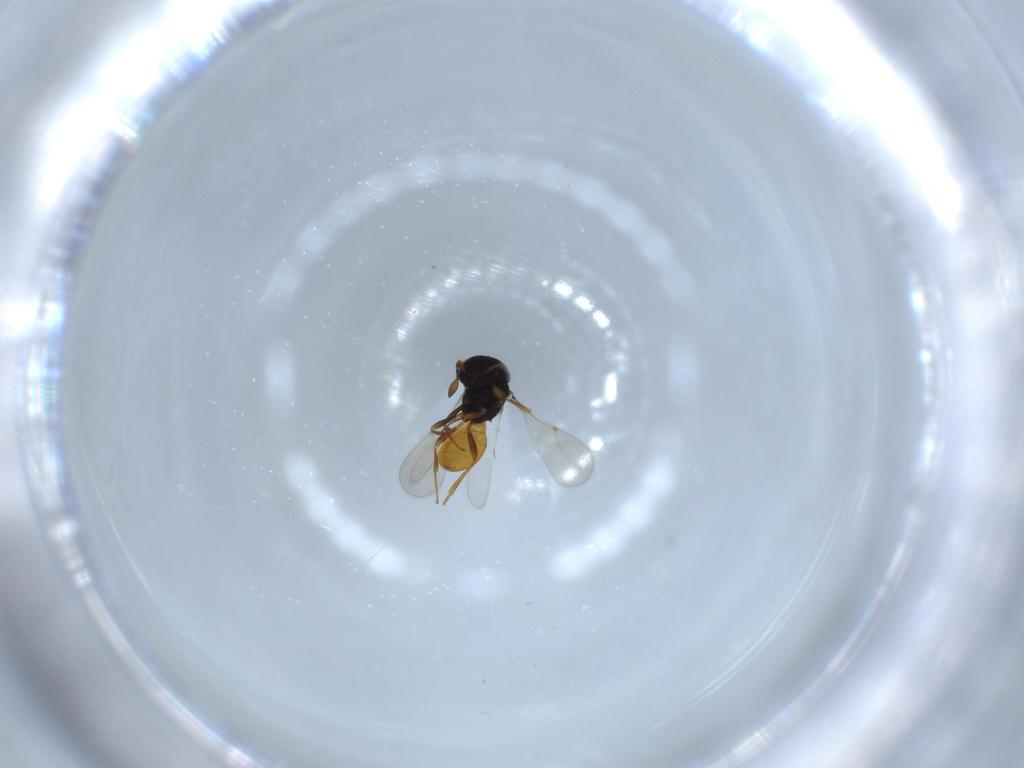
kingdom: Animalia
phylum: Arthropoda
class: Insecta
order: Hymenoptera
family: Scelionidae
